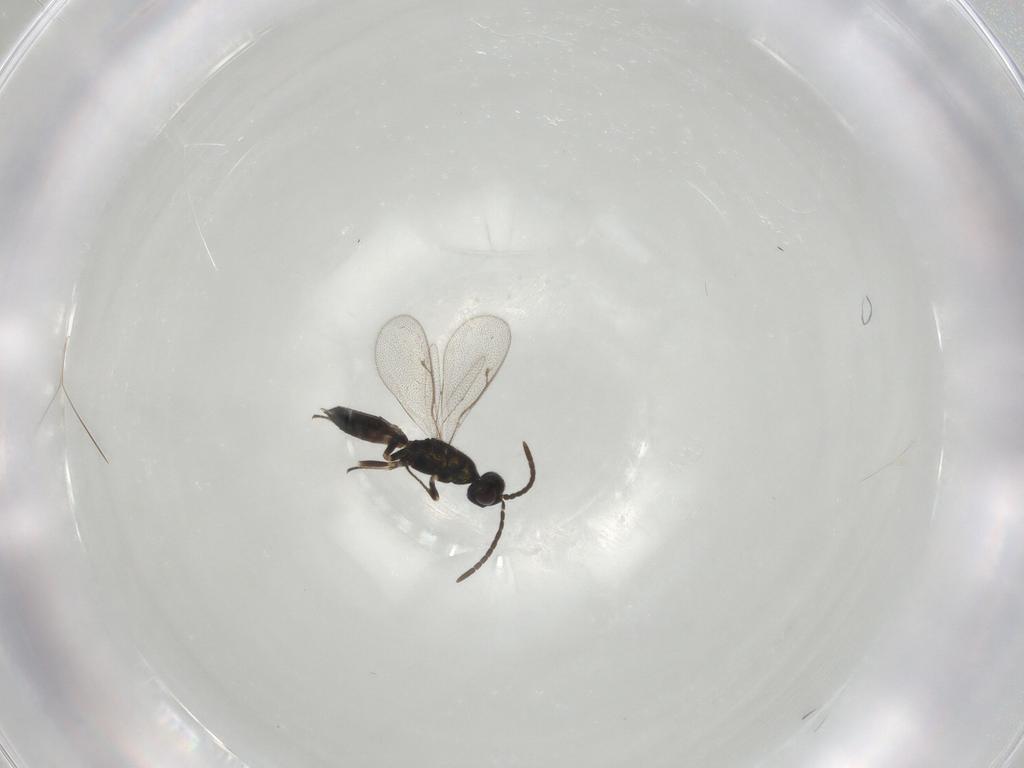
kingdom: Animalia
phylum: Arthropoda
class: Insecta
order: Hymenoptera
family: Eupelmidae
